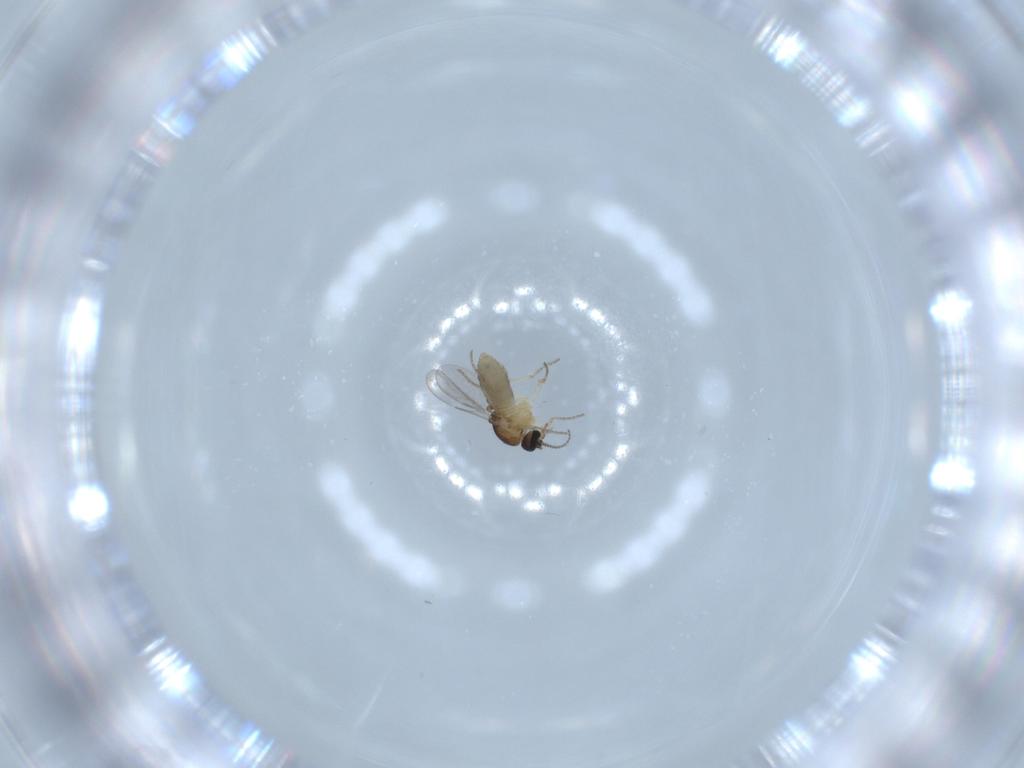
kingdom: Animalia
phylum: Arthropoda
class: Insecta
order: Diptera
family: Ceratopogonidae
